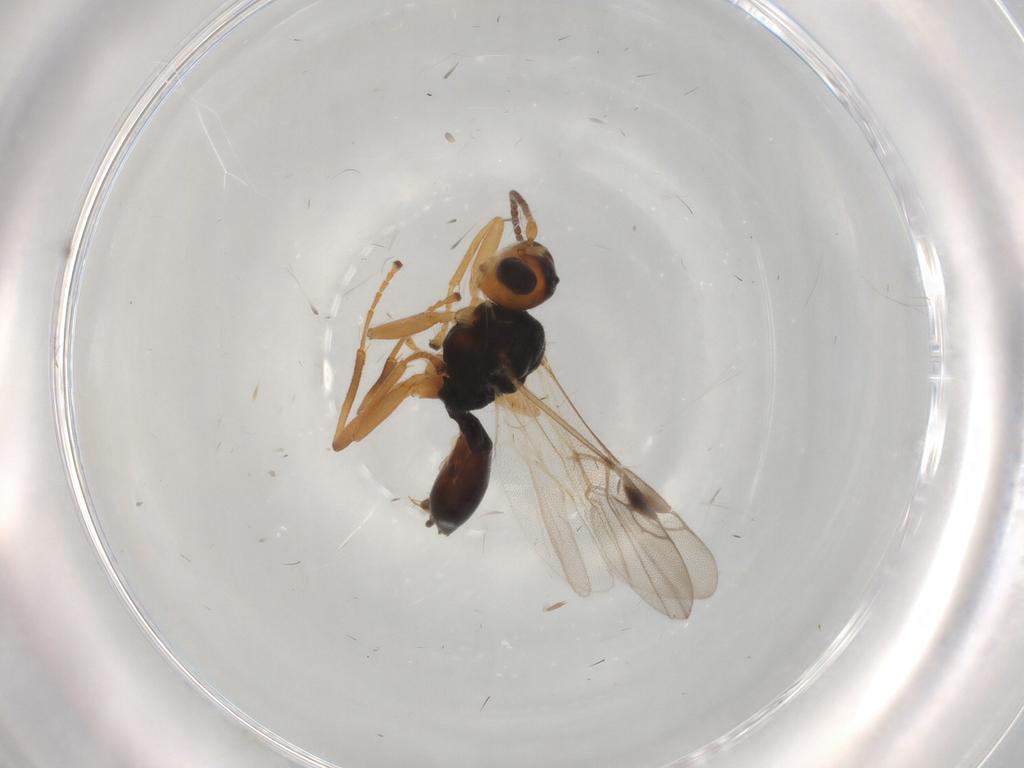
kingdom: Animalia
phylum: Arthropoda
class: Insecta
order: Hymenoptera
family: Braconidae
